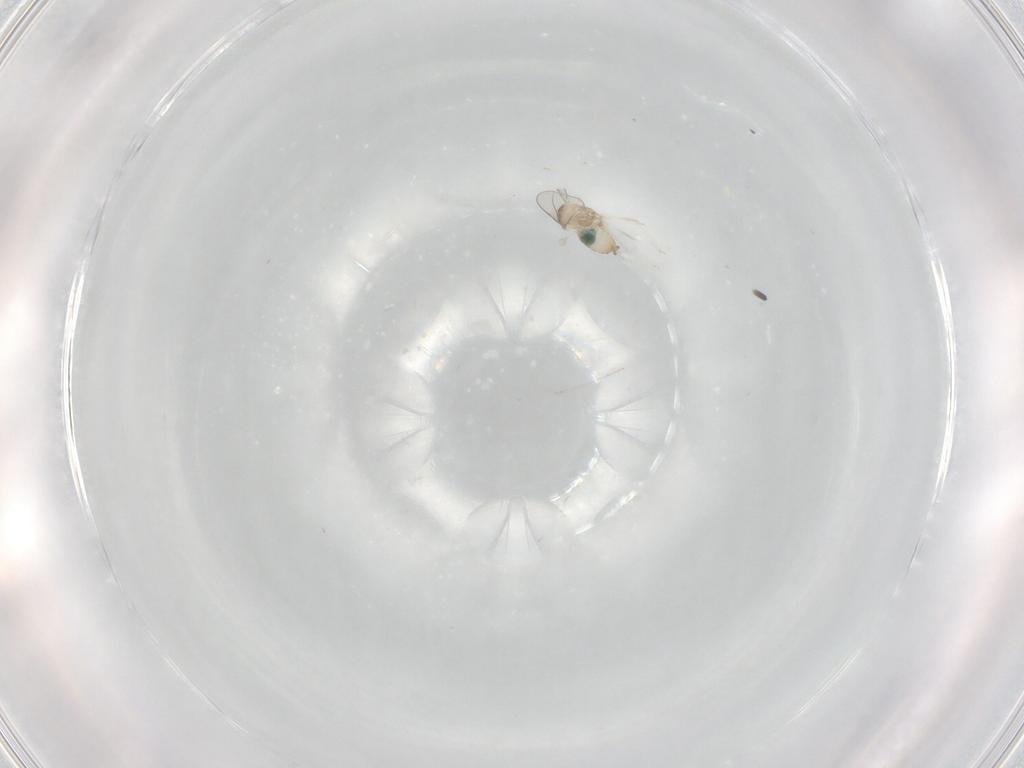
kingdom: Animalia
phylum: Arthropoda
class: Insecta
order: Diptera
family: Cecidomyiidae
